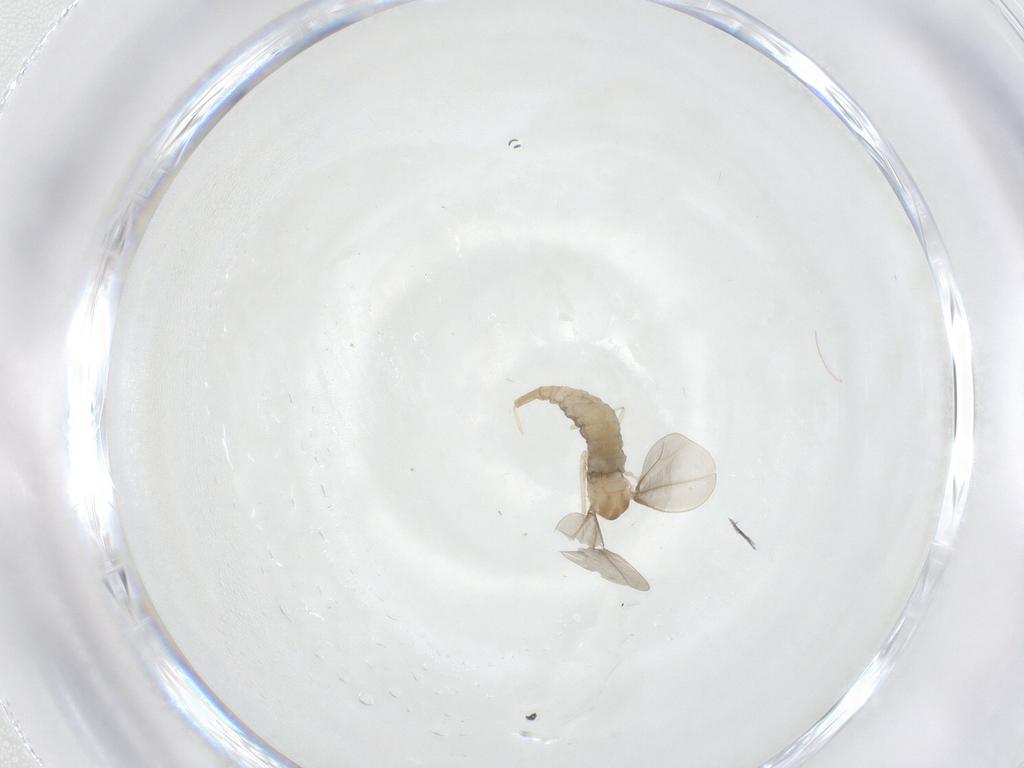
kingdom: Animalia
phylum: Arthropoda
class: Insecta
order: Diptera
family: Cecidomyiidae
